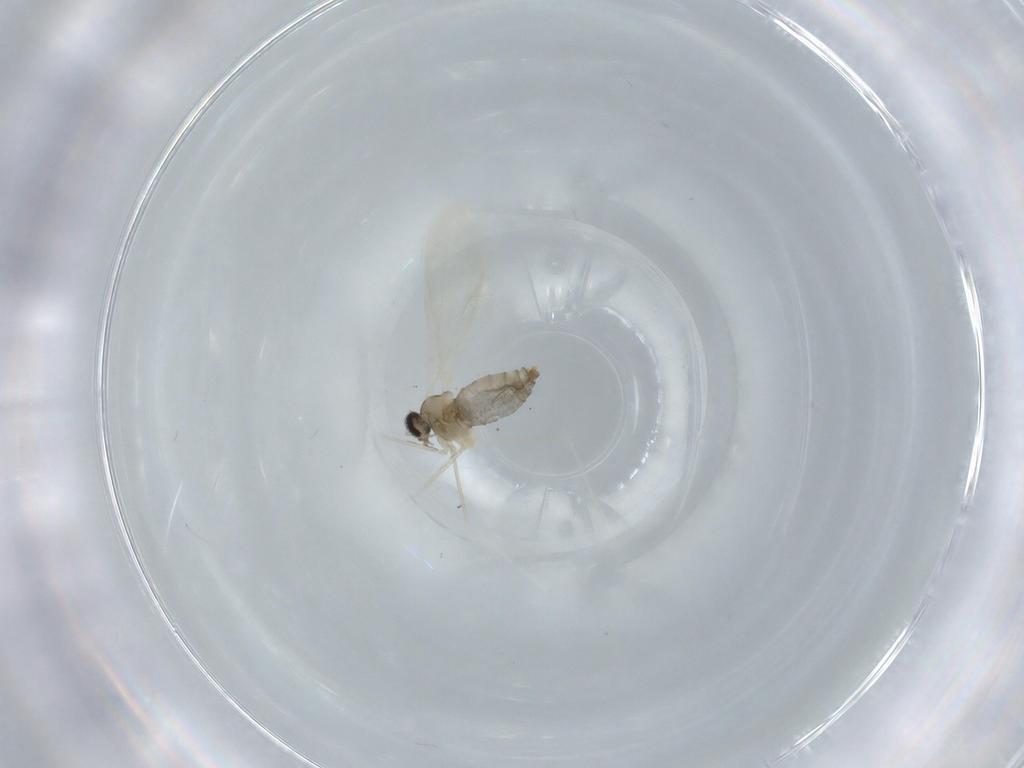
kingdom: Animalia
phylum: Arthropoda
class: Insecta
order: Diptera
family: Cecidomyiidae
